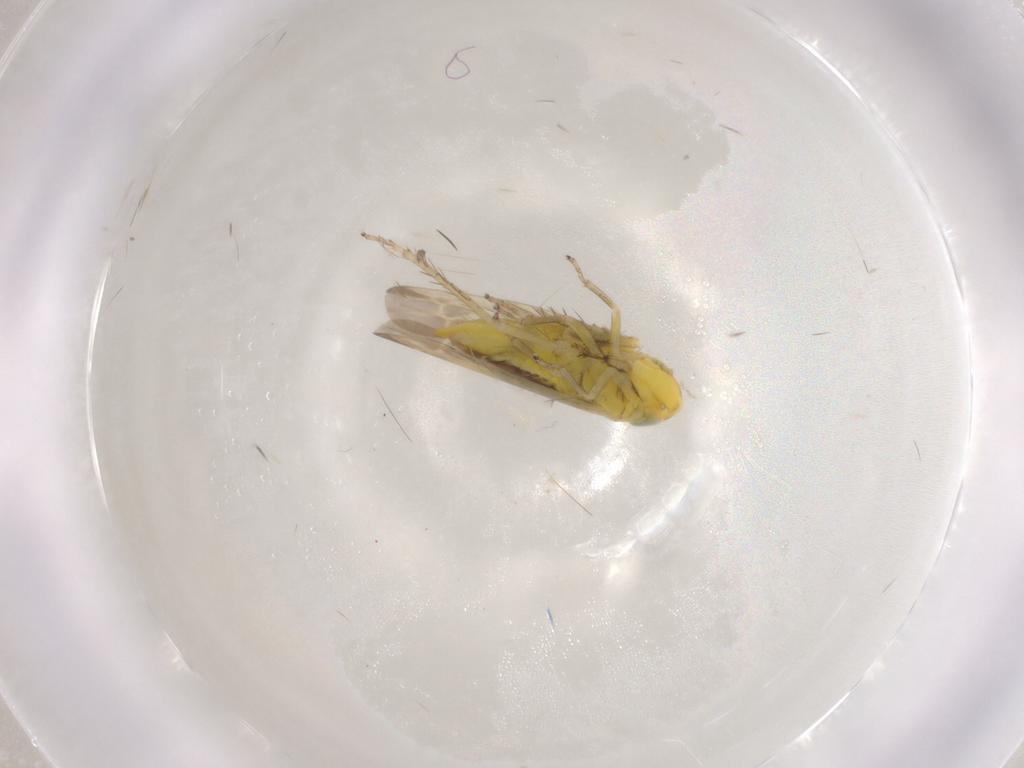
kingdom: Animalia
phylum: Arthropoda
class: Insecta
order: Hemiptera
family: Cicadellidae
